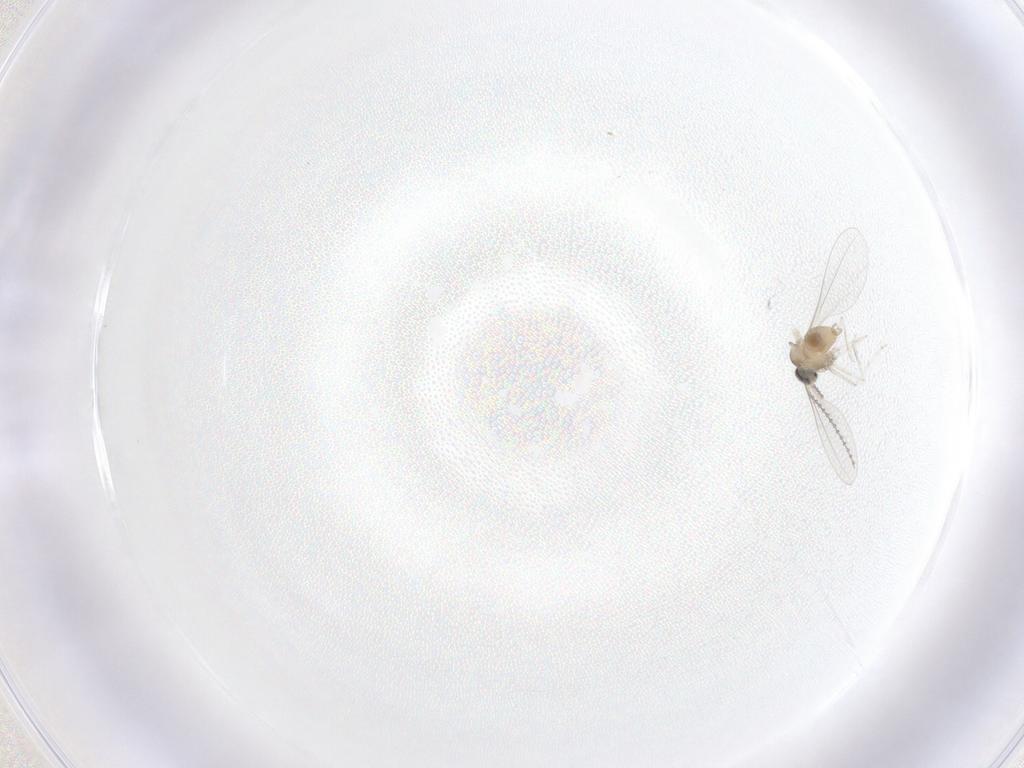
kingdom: Animalia
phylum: Arthropoda
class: Insecta
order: Diptera
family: Cecidomyiidae
